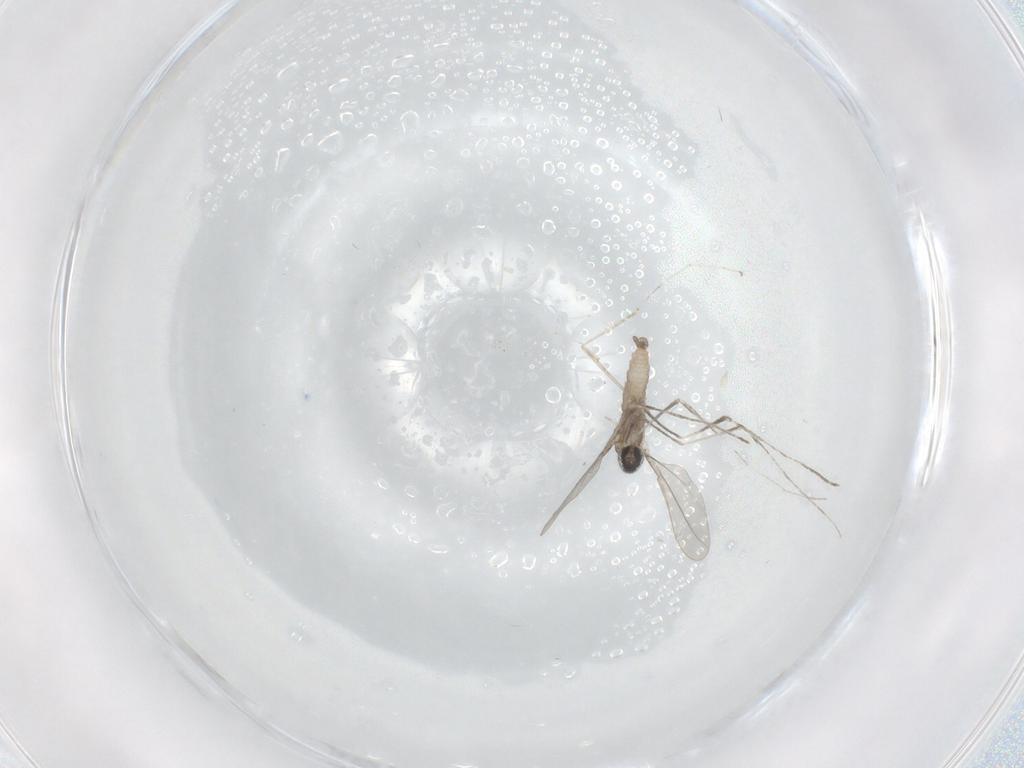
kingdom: Animalia
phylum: Arthropoda
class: Insecta
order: Diptera
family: Cecidomyiidae
